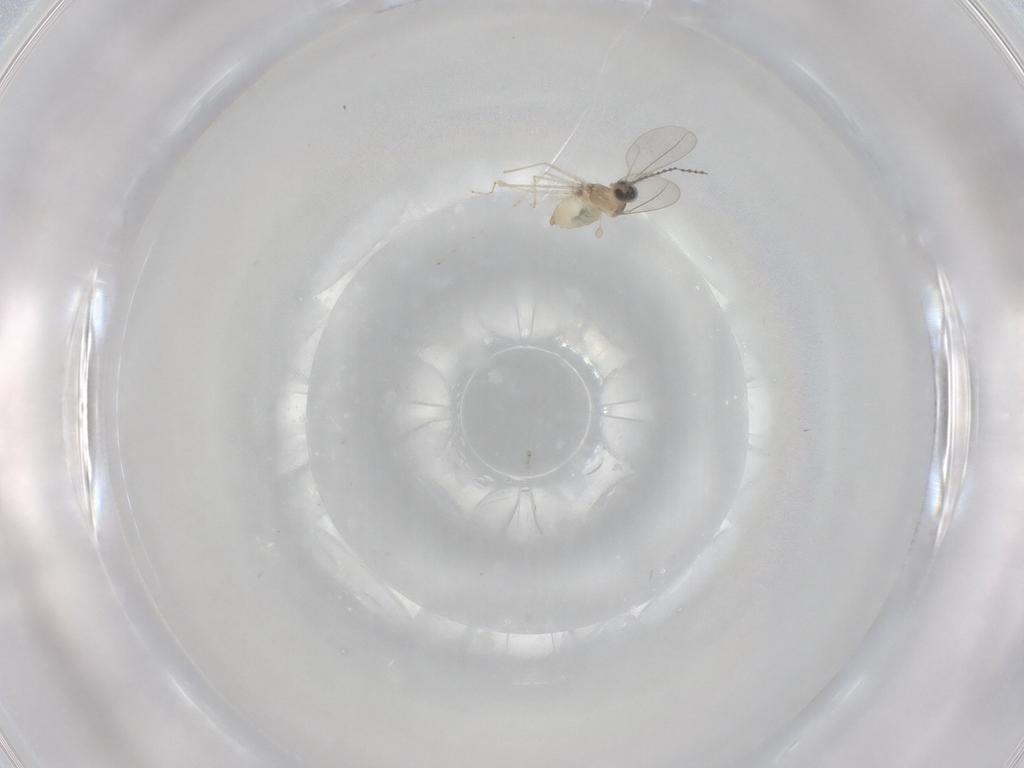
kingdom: Animalia
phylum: Arthropoda
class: Insecta
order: Diptera
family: Cecidomyiidae
